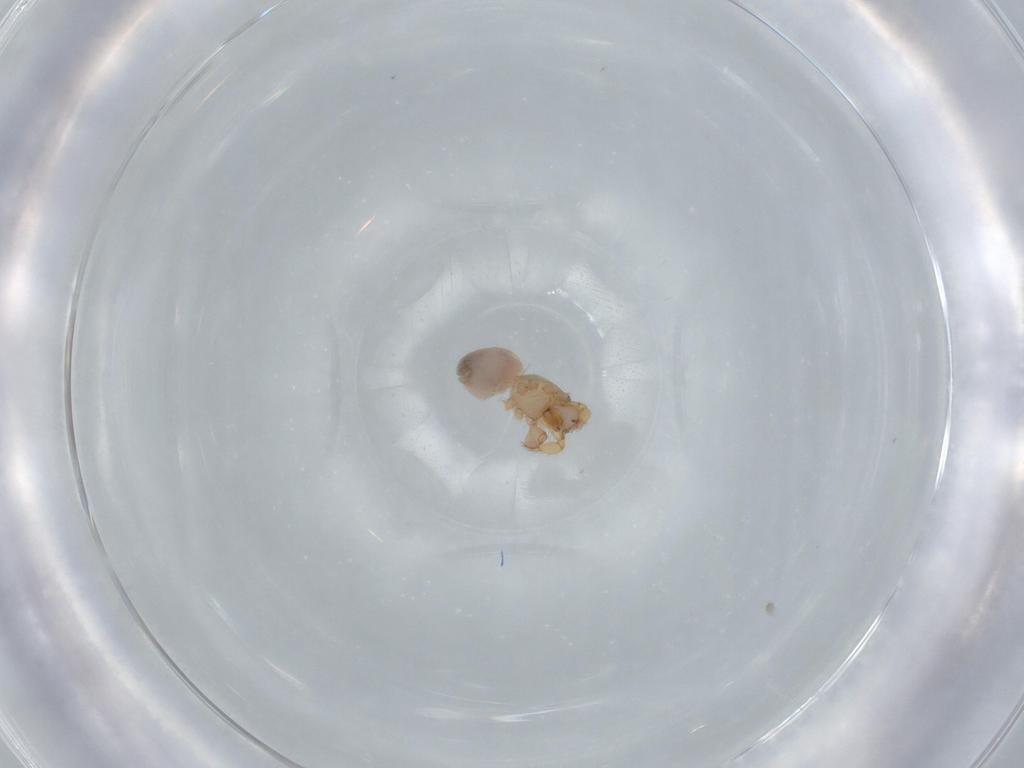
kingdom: Animalia
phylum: Arthropoda
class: Arachnida
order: Araneae
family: Oonopidae
